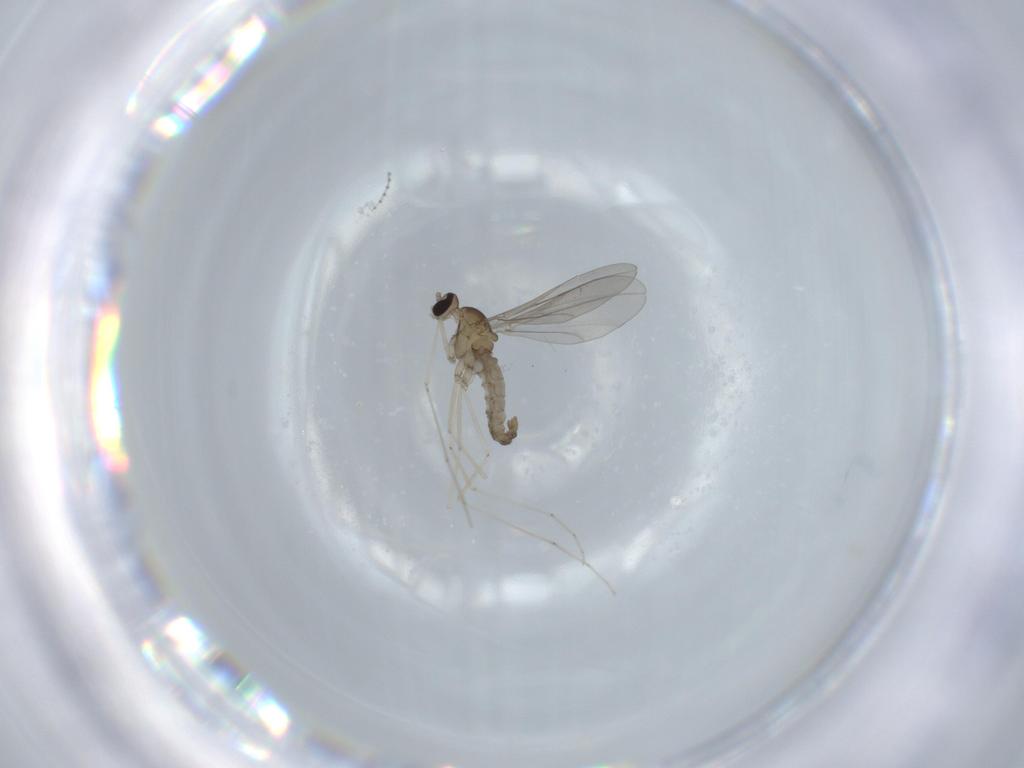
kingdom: Animalia
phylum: Arthropoda
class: Insecta
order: Diptera
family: Cecidomyiidae
